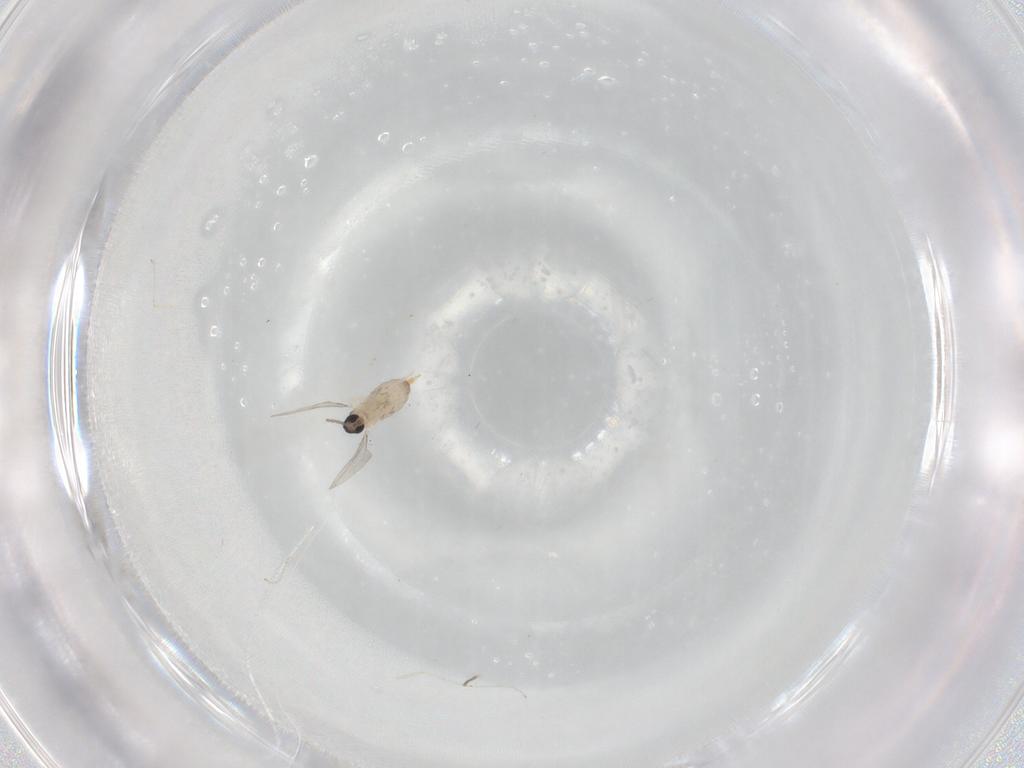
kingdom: Animalia
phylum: Arthropoda
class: Insecta
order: Diptera
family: Cecidomyiidae
